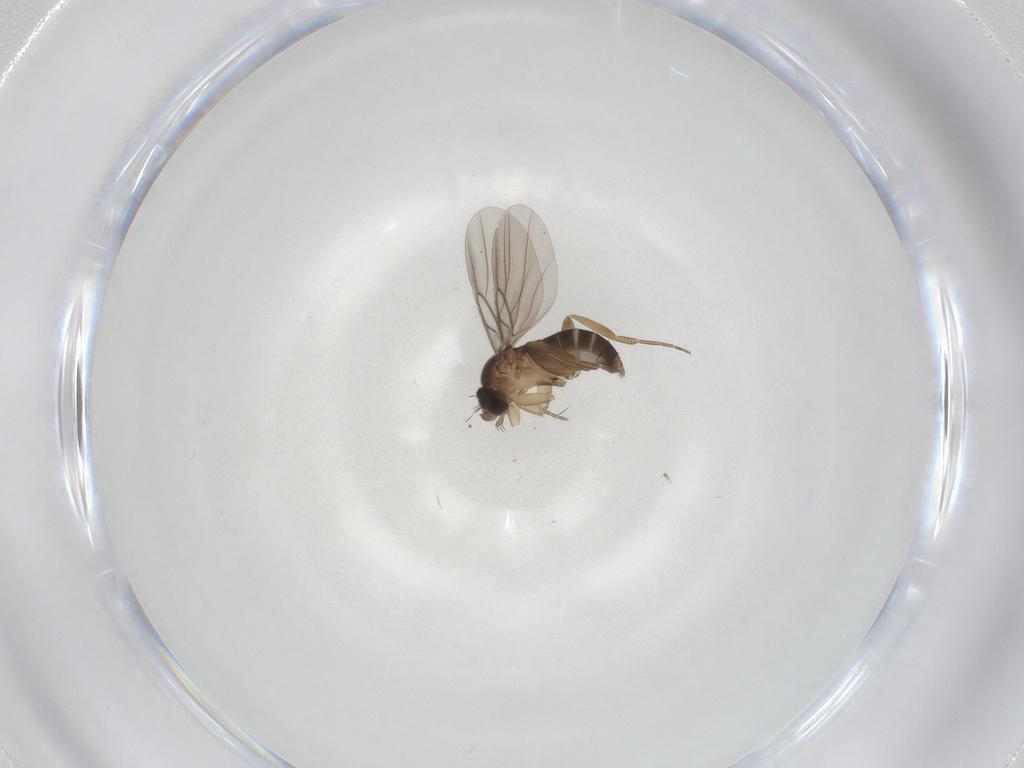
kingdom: Animalia
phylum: Arthropoda
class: Insecta
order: Diptera
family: Chironomidae
